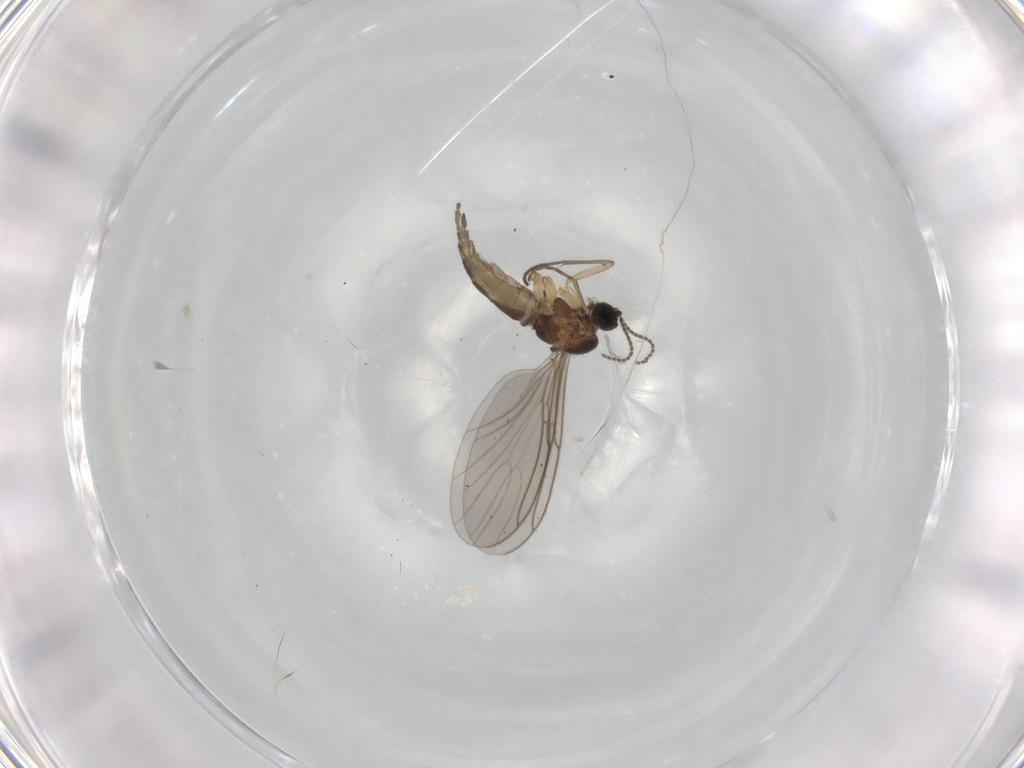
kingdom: Animalia
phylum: Arthropoda
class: Insecta
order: Diptera
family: Sciaridae
